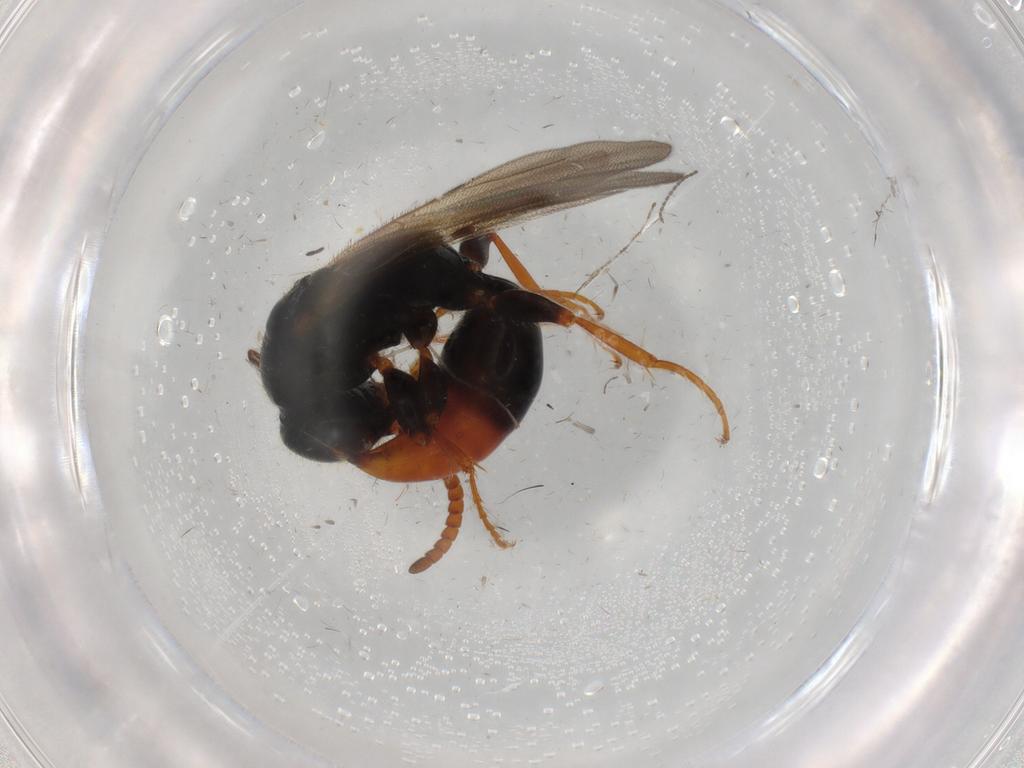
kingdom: Animalia
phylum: Arthropoda
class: Insecta
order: Hymenoptera
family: Bethylidae
